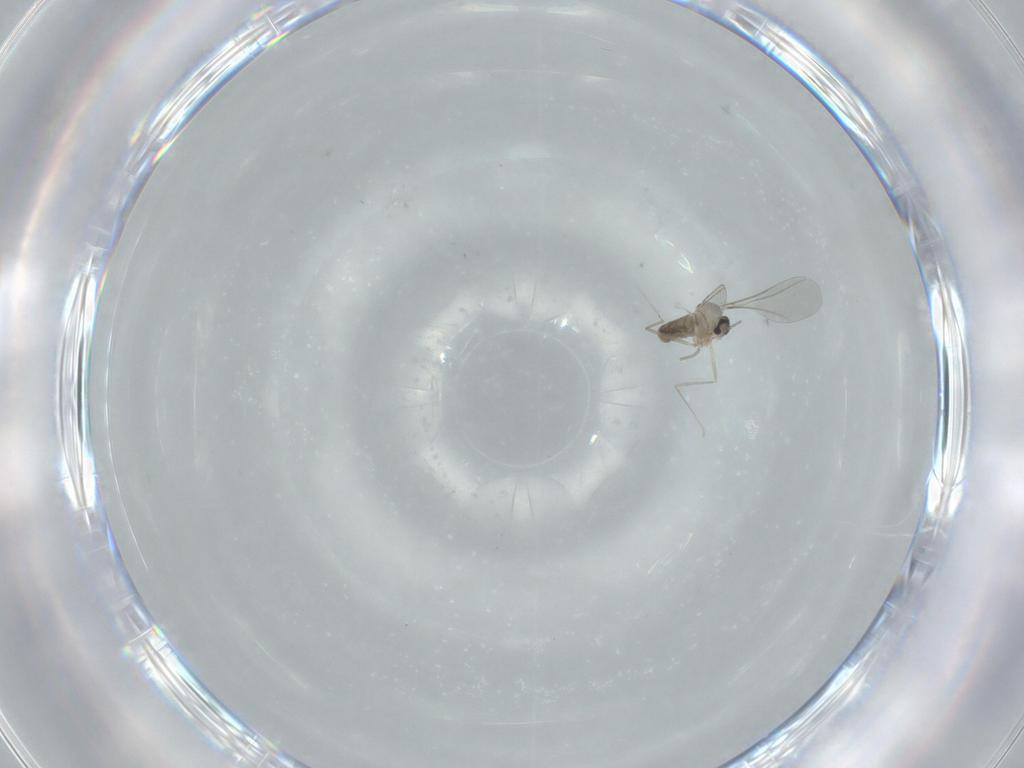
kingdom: Animalia
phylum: Arthropoda
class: Insecta
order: Diptera
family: Cecidomyiidae
